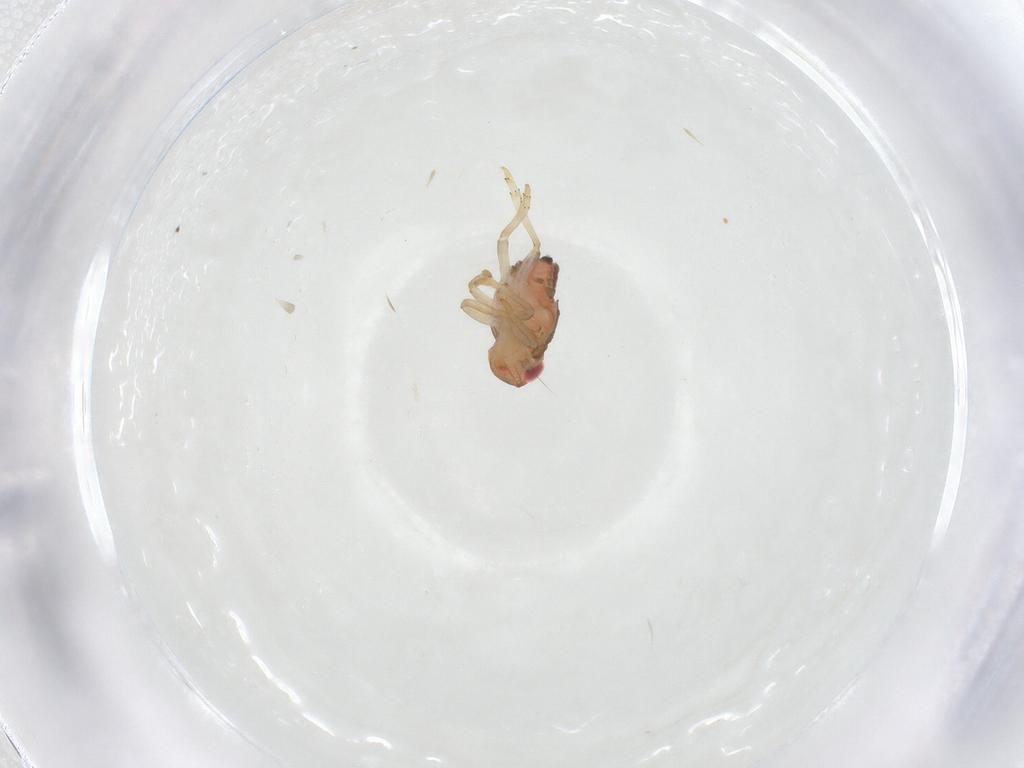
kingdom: Animalia
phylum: Arthropoda
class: Insecta
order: Hemiptera
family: Issidae
